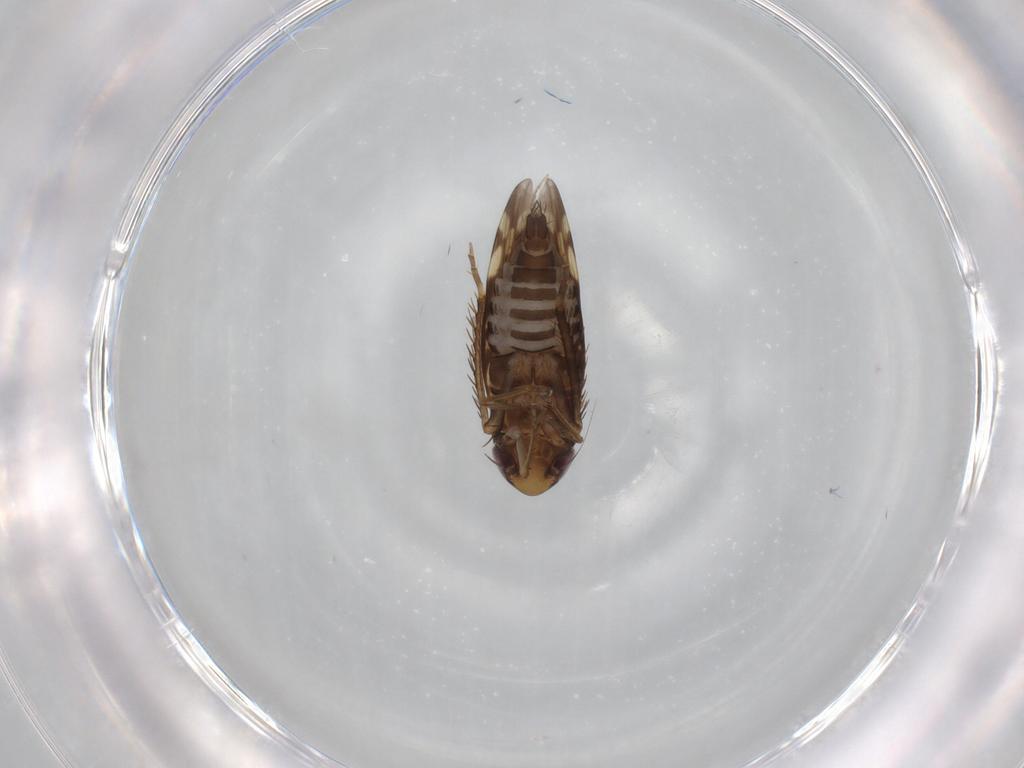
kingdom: Animalia
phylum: Arthropoda
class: Insecta
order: Hemiptera
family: Cicadellidae
